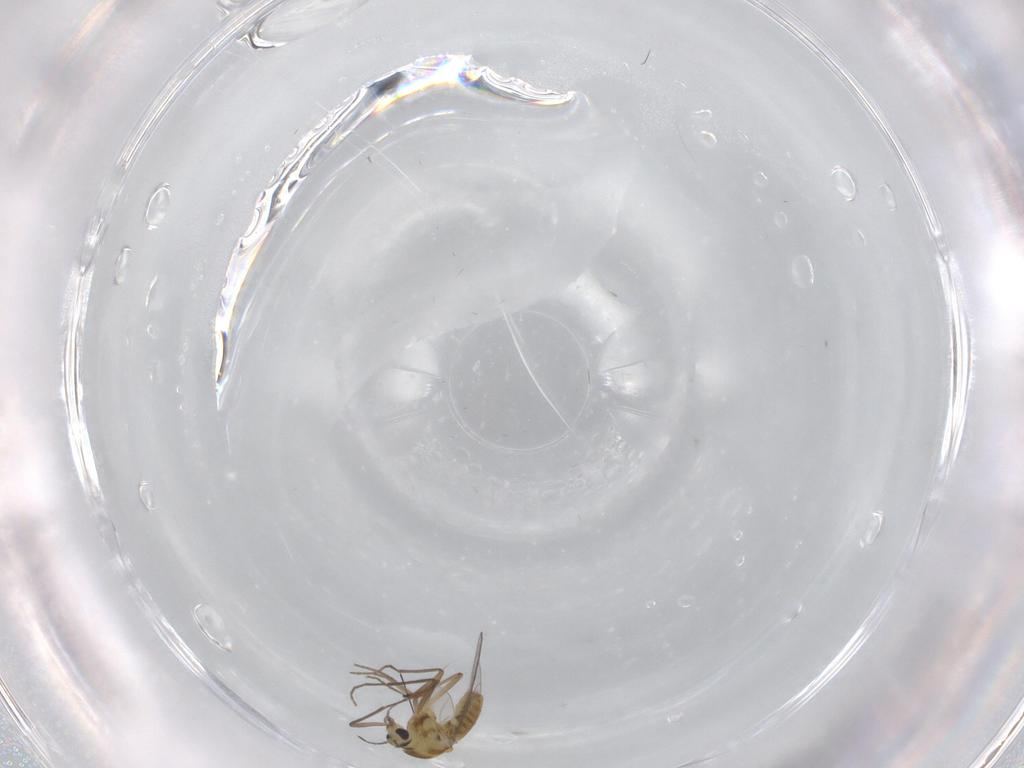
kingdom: Animalia
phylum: Arthropoda
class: Insecta
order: Diptera
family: Chironomidae
